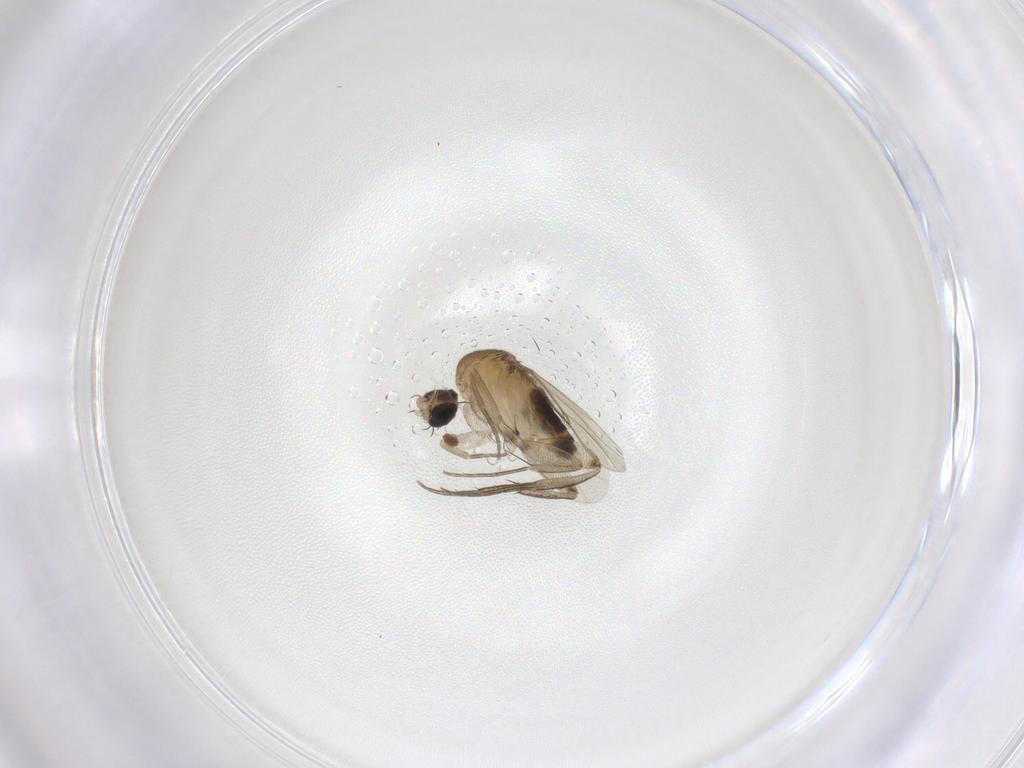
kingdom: Animalia
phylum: Arthropoda
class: Insecta
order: Diptera
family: Phoridae
